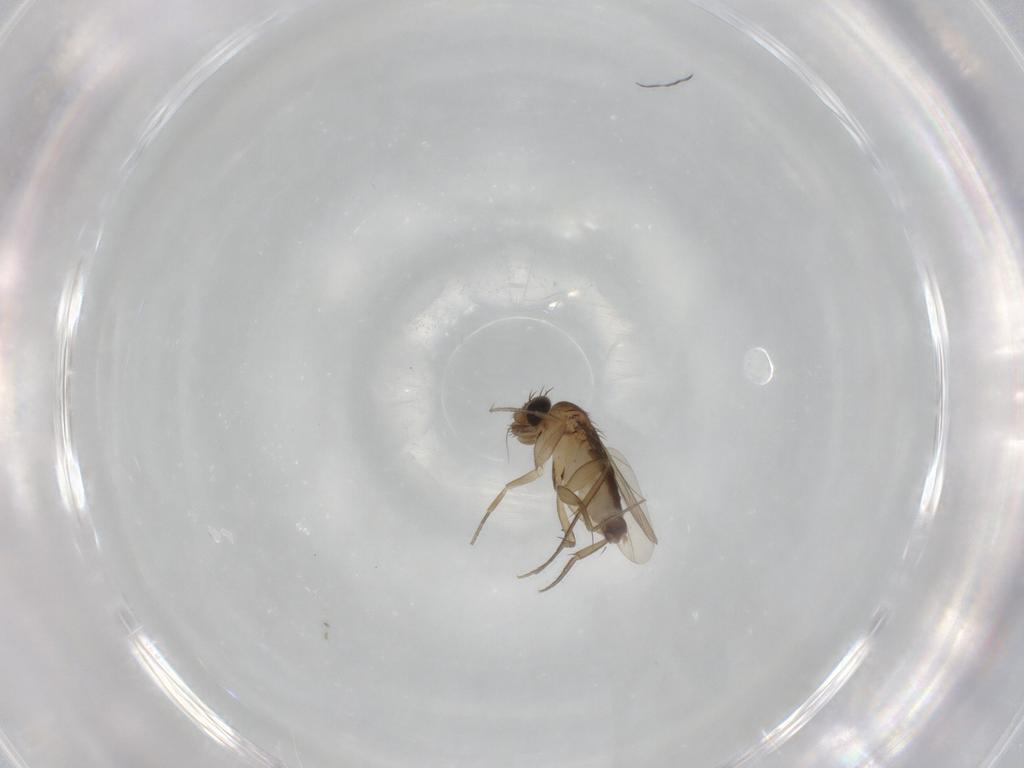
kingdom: Animalia
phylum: Arthropoda
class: Insecta
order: Diptera
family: Phoridae
